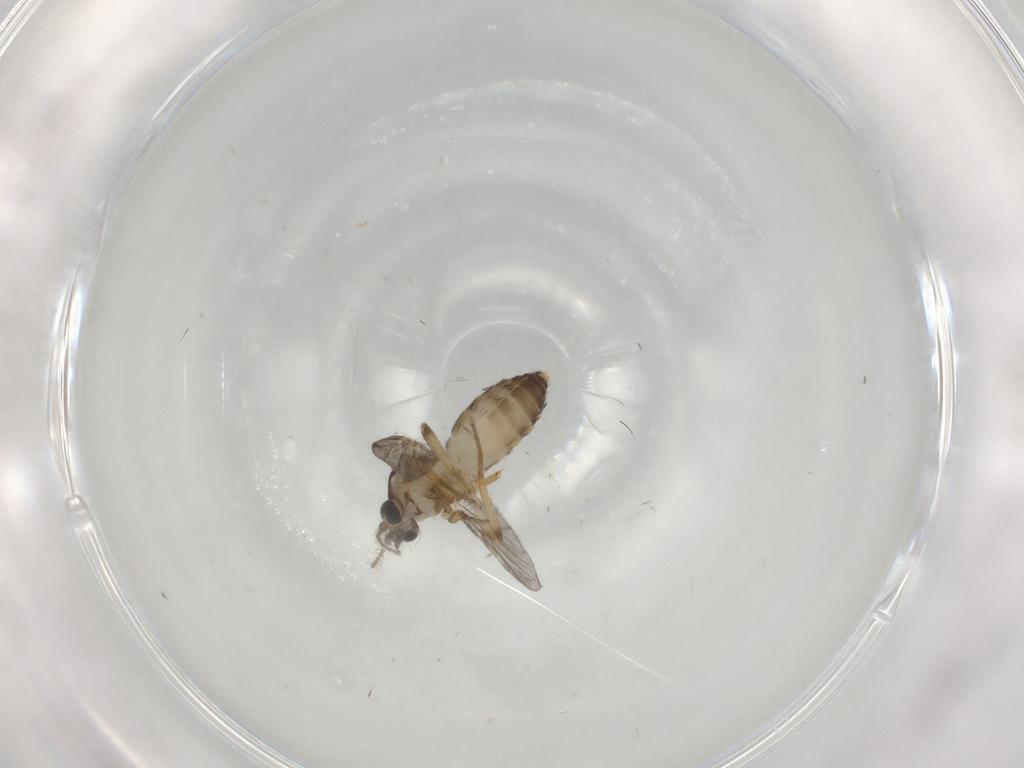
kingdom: Animalia
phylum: Arthropoda
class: Insecta
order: Diptera
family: Ceratopogonidae
